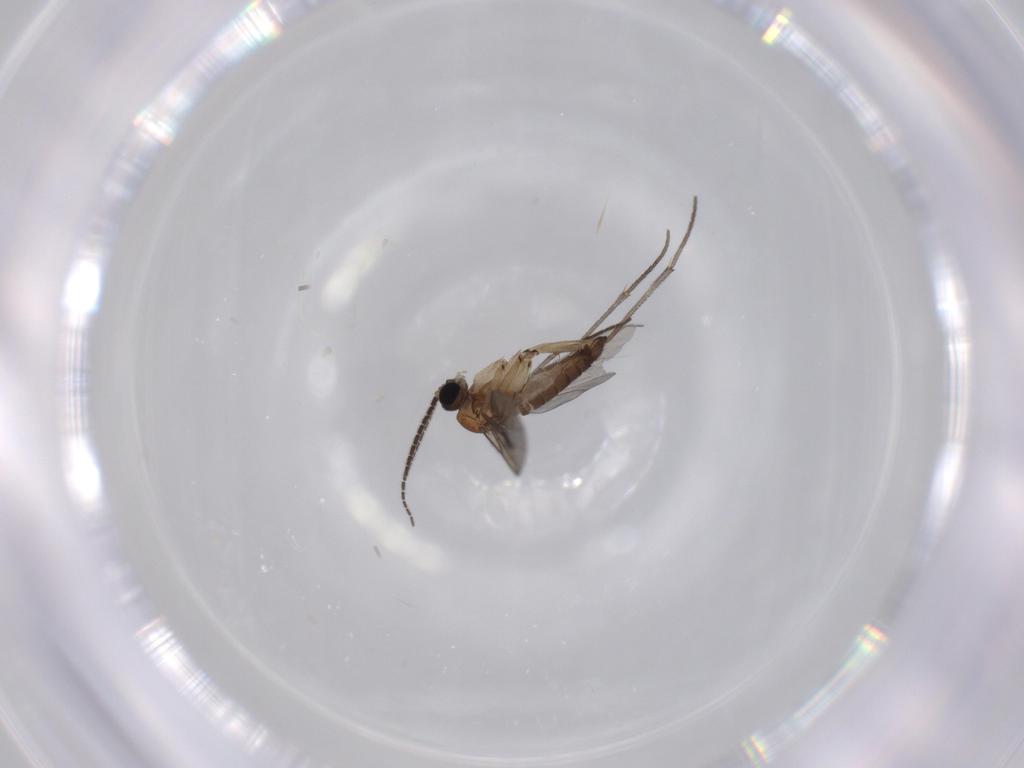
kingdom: Animalia
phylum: Arthropoda
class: Insecta
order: Diptera
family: Sciaridae
